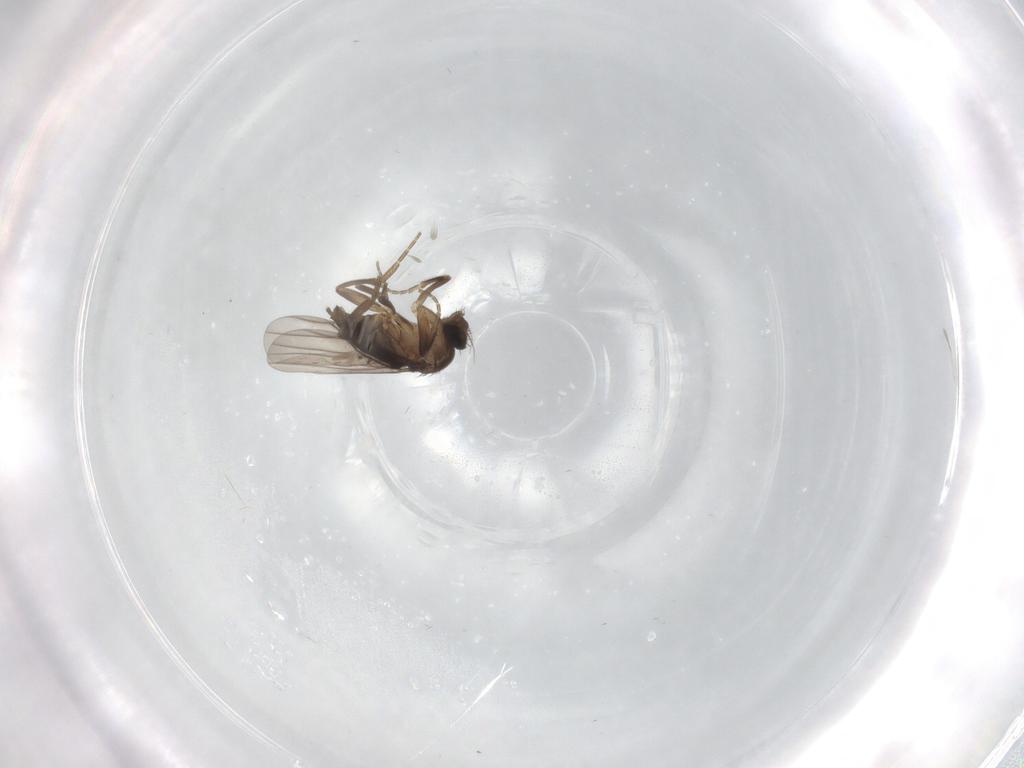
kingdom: Animalia
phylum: Arthropoda
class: Insecta
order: Diptera
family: Phoridae
